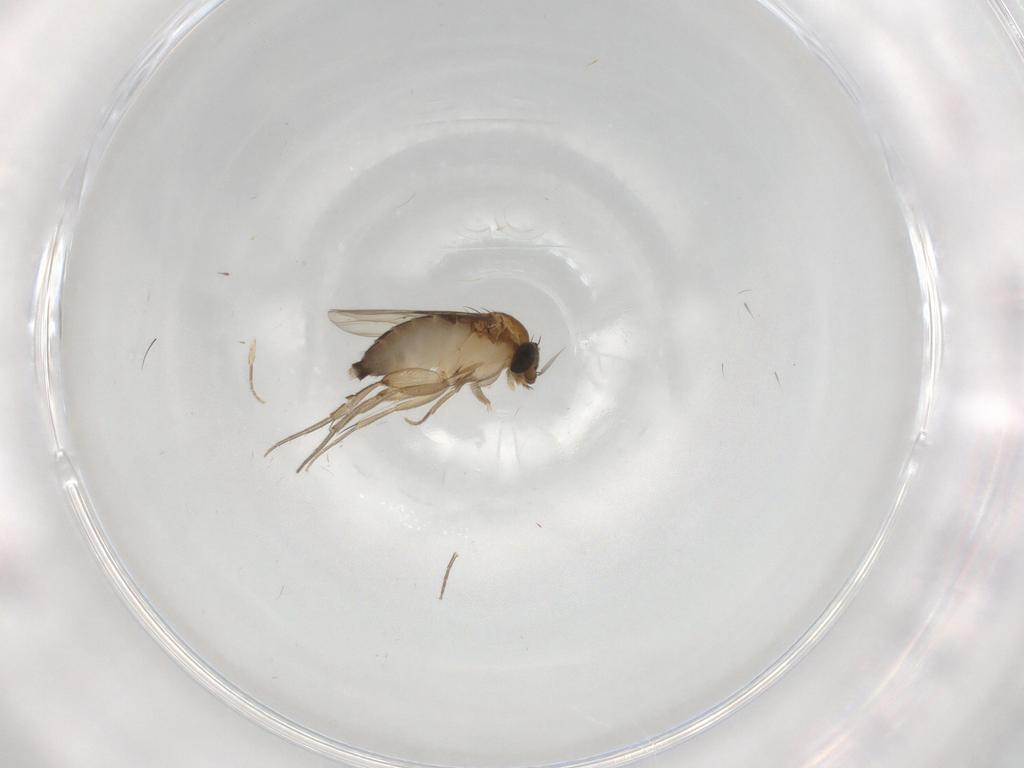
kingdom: Animalia
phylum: Arthropoda
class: Insecta
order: Diptera
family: Phoridae
